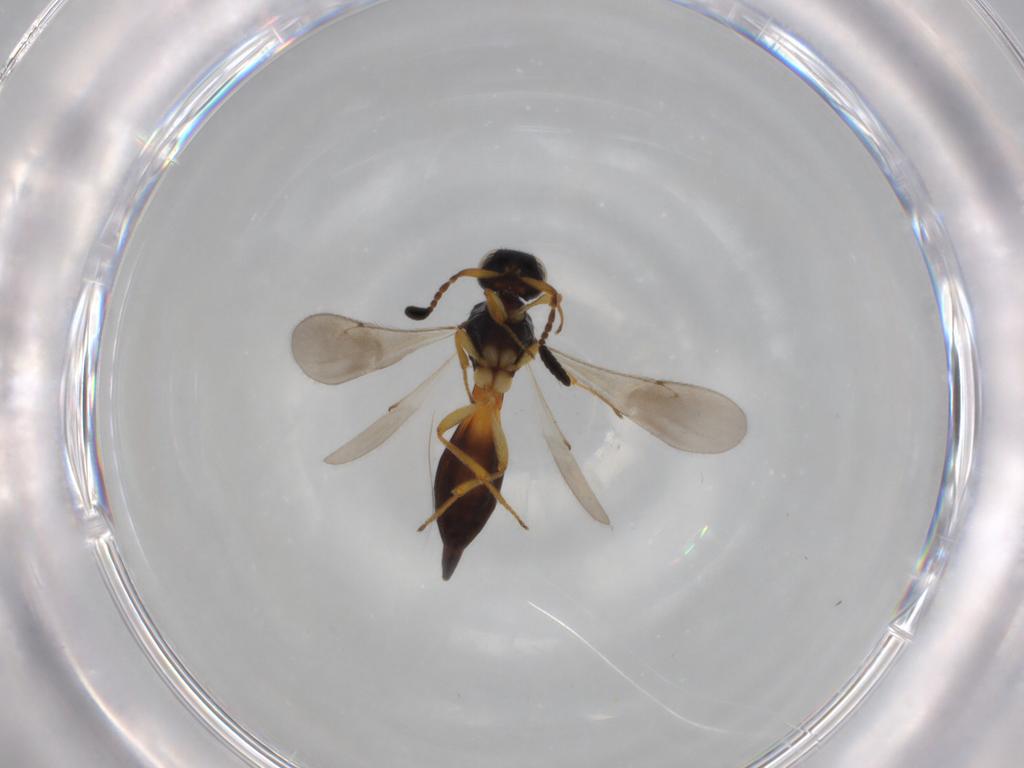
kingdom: Animalia
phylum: Arthropoda
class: Insecta
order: Hymenoptera
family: Scelionidae
